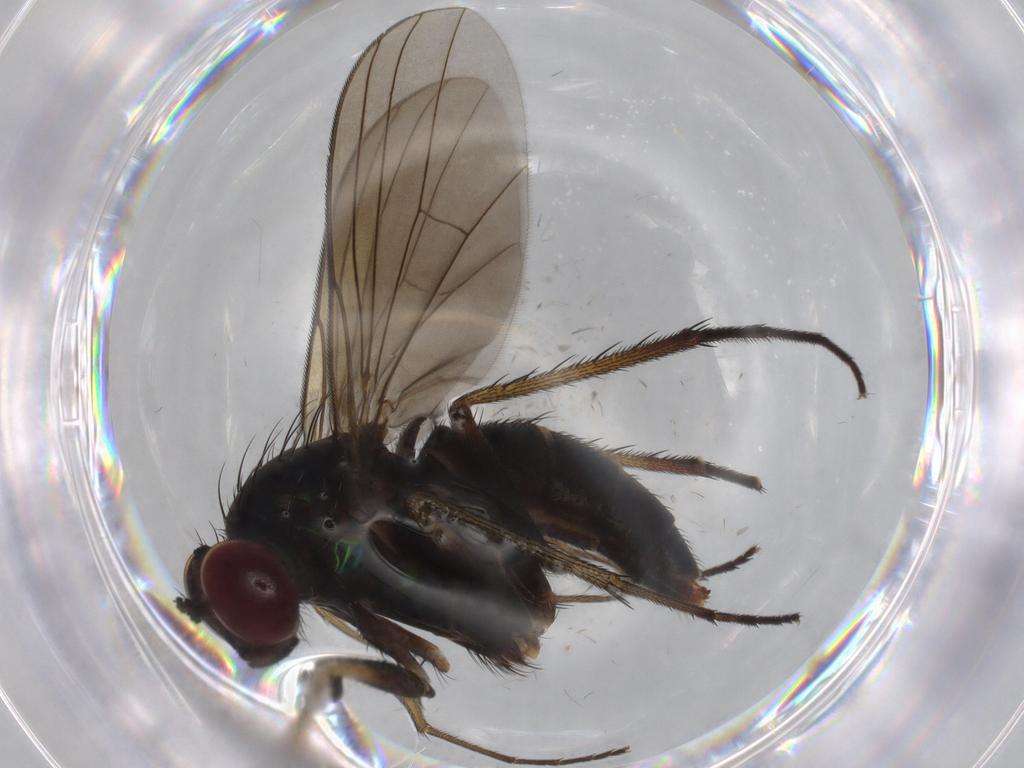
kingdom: Animalia
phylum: Arthropoda
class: Insecta
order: Diptera
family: Dolichopodidae
